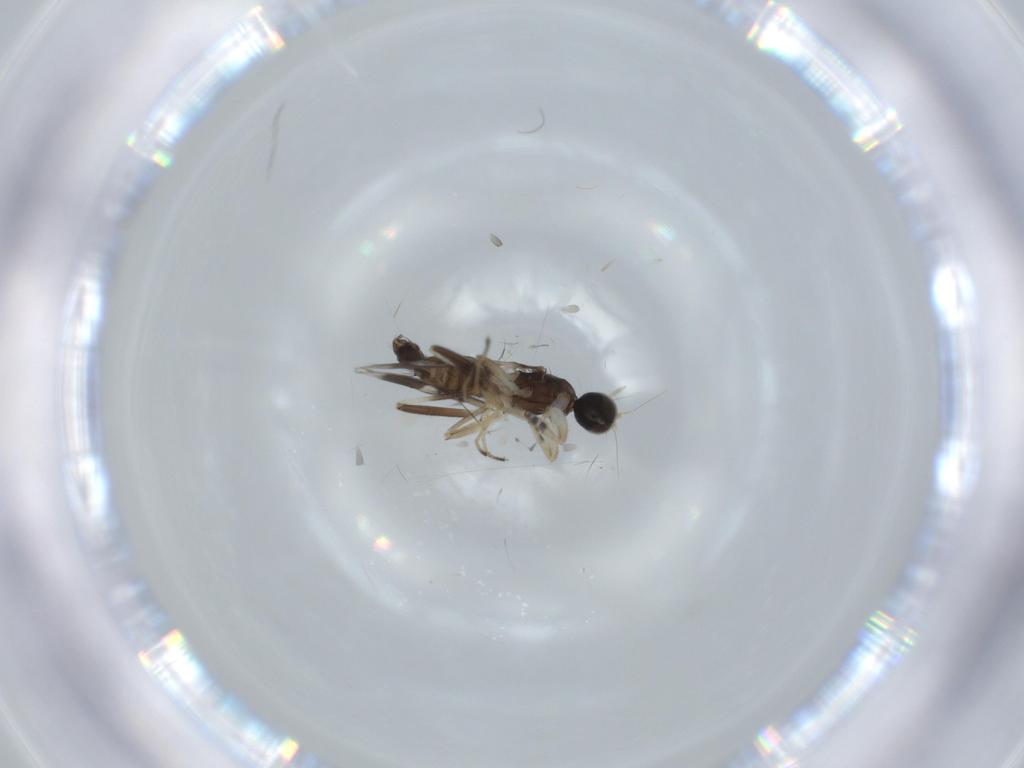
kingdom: Animalia
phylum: Arthropoda
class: Insecta
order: Diptera
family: Hybotidae
